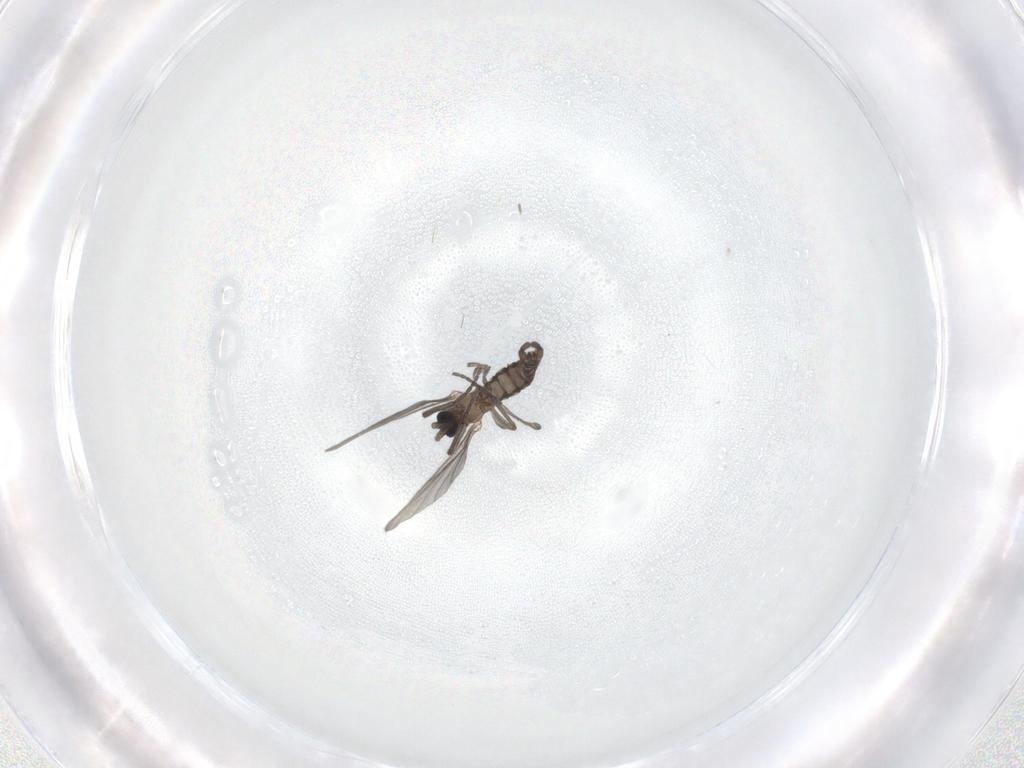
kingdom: Animalia
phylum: Arthropoda
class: Insecta
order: Diptera
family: Sciaridae
